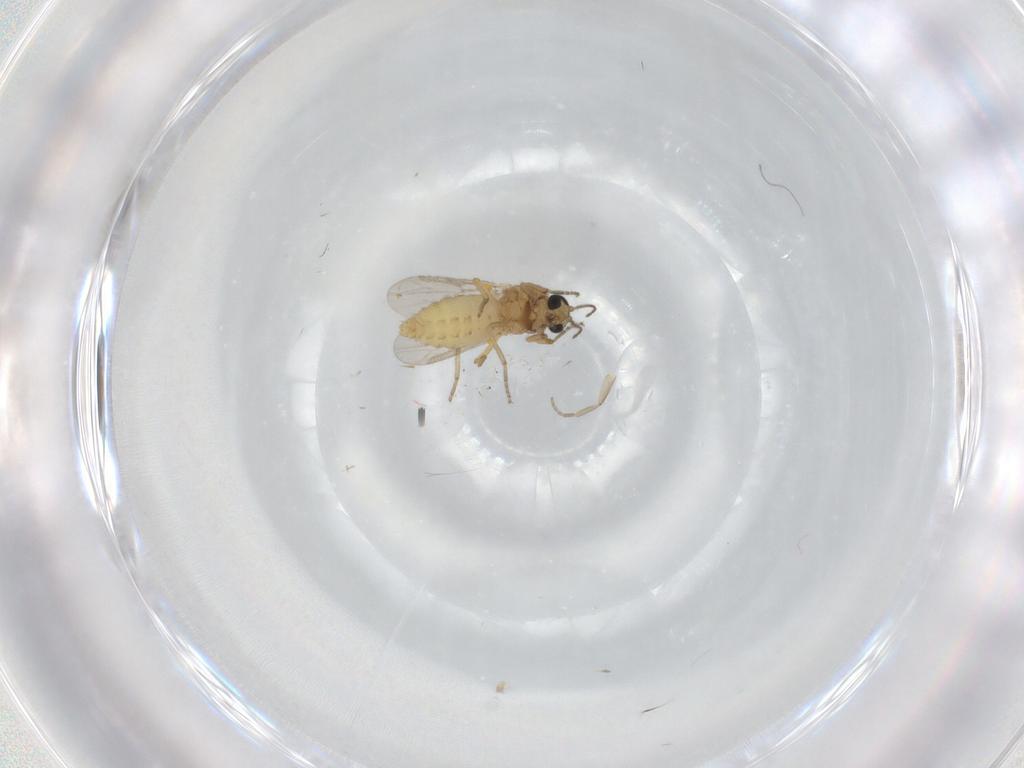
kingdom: Animalia
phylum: Arthropoda
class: Insecta
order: Diptera
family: Ceratopogonidae
